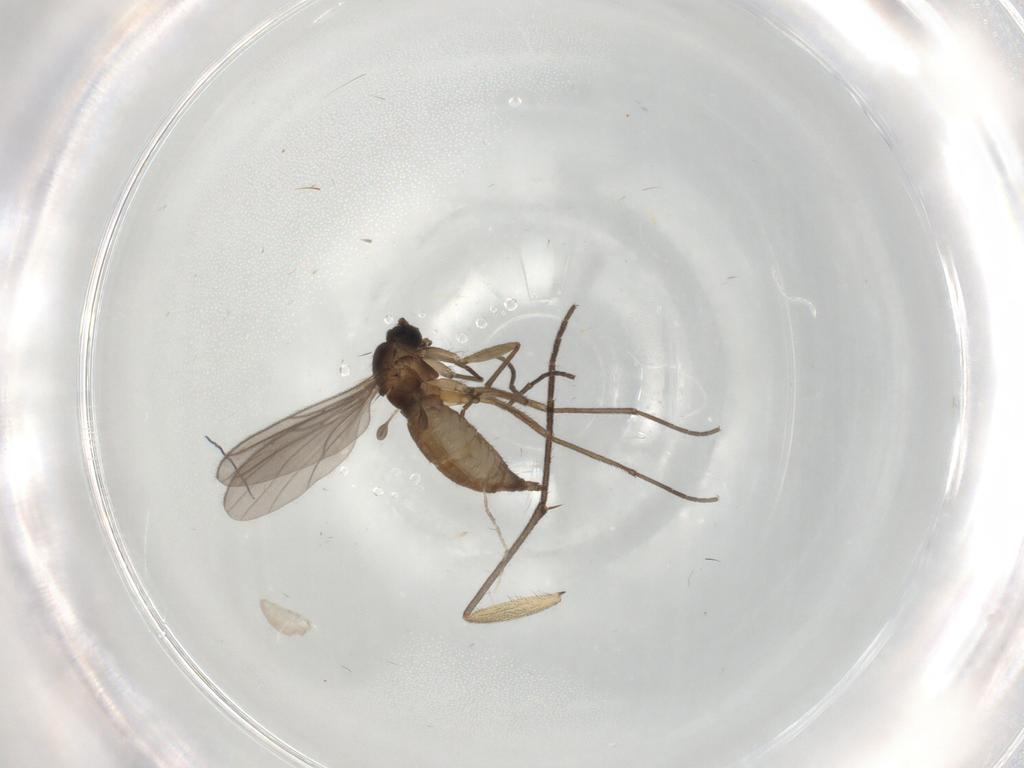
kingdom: Animalia
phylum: Arthropoda
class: Insecta
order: Diptera
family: Sciaridae
